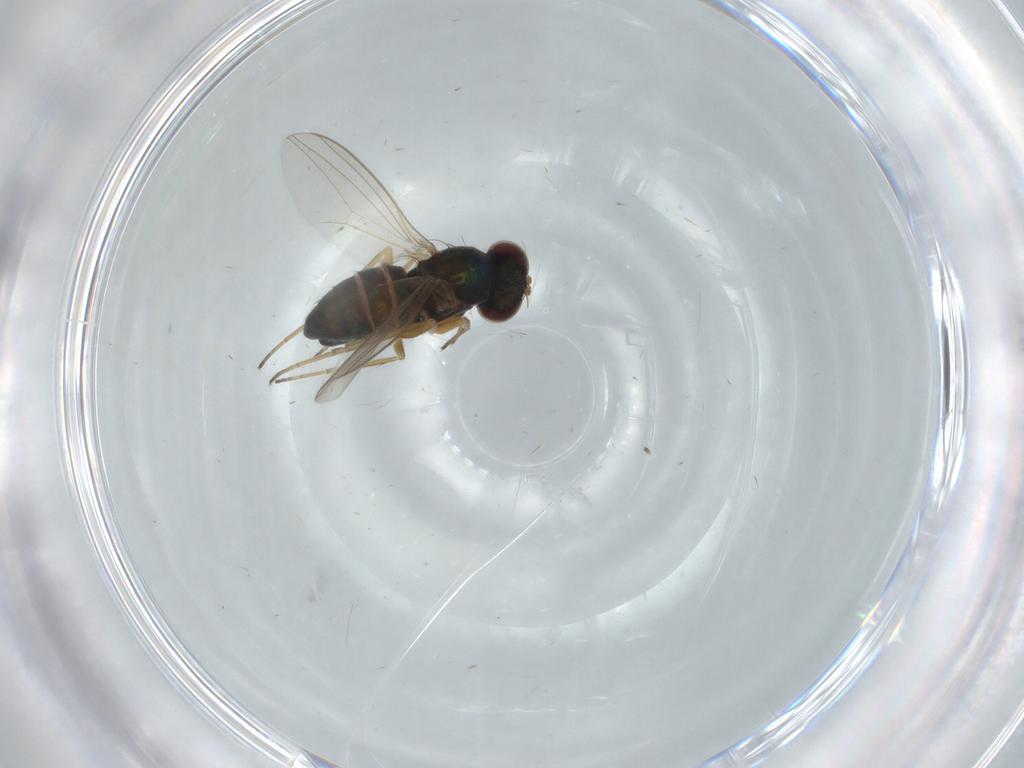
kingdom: Animalia
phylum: Arthropoda
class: Insecta
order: Diptera
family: Dolichopodidae
